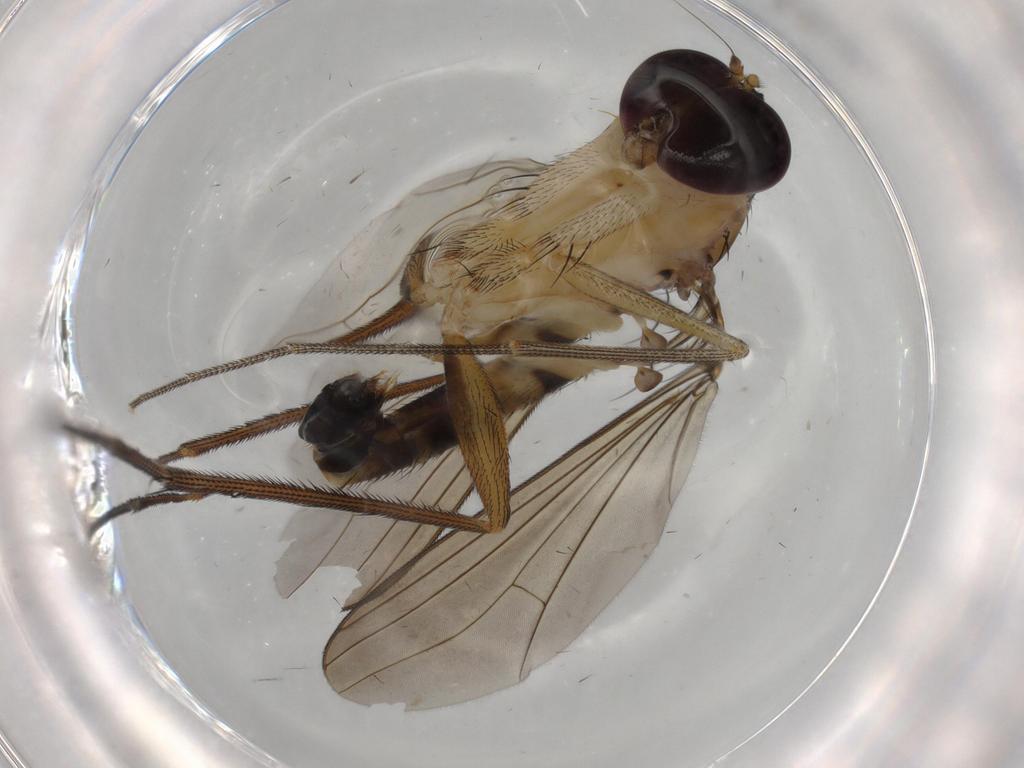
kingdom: Animalia
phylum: Arthropoda
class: Insecta
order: Diptera
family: Dolichopodidae
